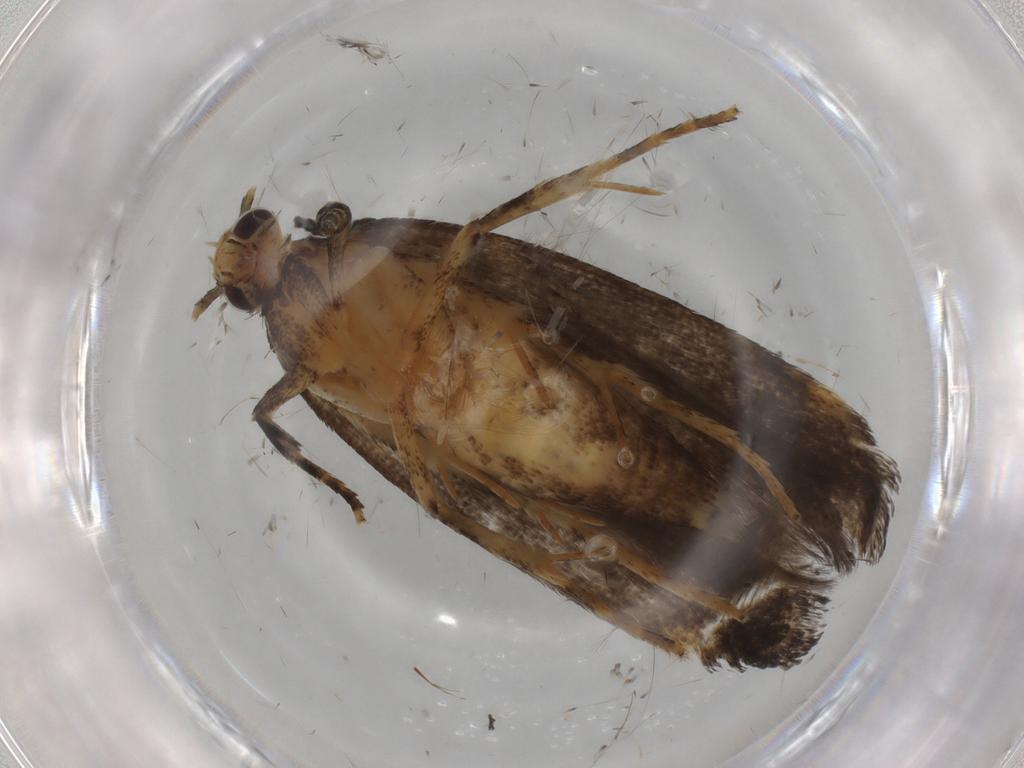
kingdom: Animalia
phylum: Arthropoda
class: Insecta
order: Lepidoptera
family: Gelechiidae
